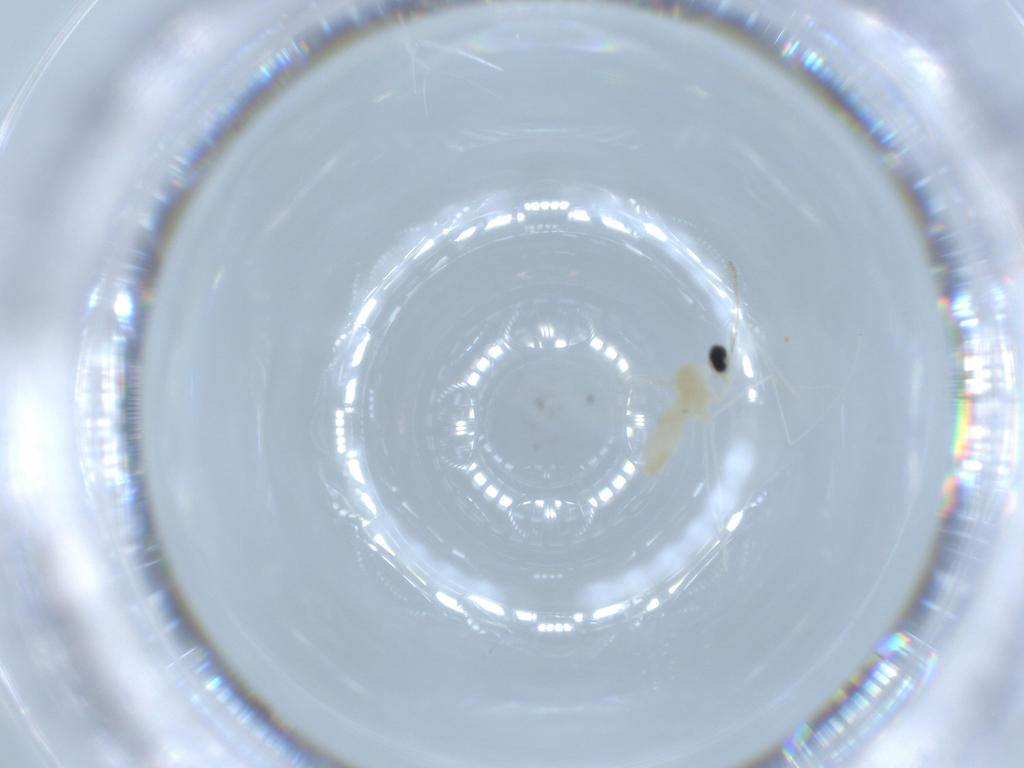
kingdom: Animalia
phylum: Arthropoda
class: Insecta
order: Diptera
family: Cecidomyiidae
